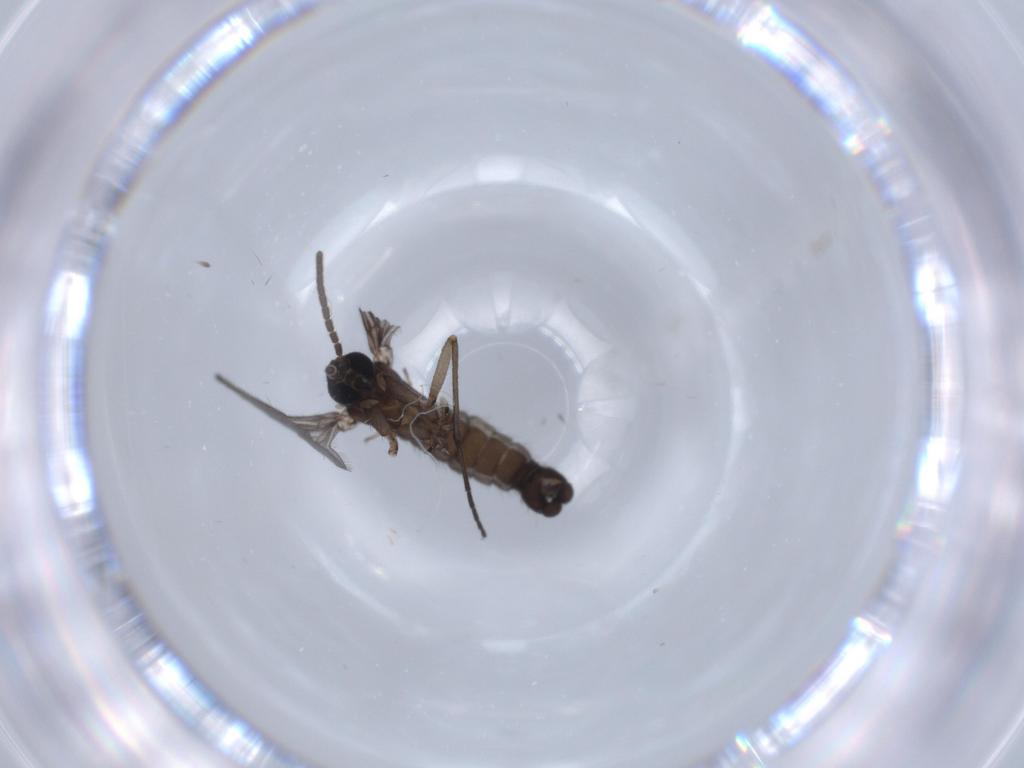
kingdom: Animalia
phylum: Arthropoda
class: Insecta
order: Diptera
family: Sciaridae
